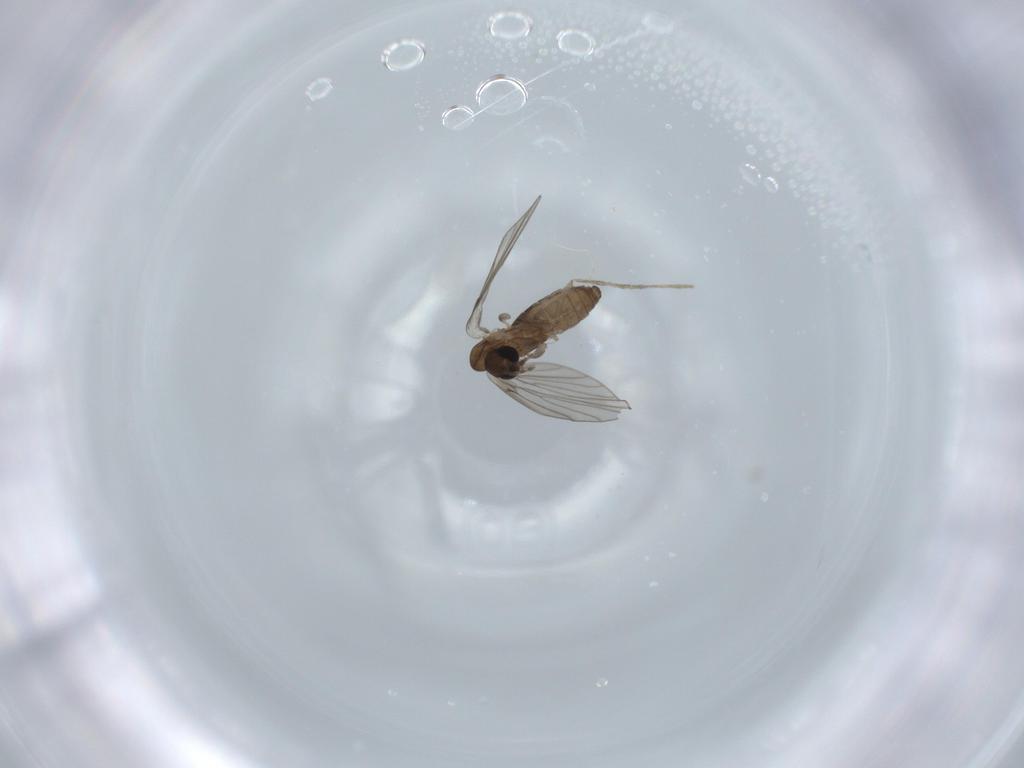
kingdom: Animalia
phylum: Arthropoda
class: Insecta
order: Diptera
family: Psychodidae
